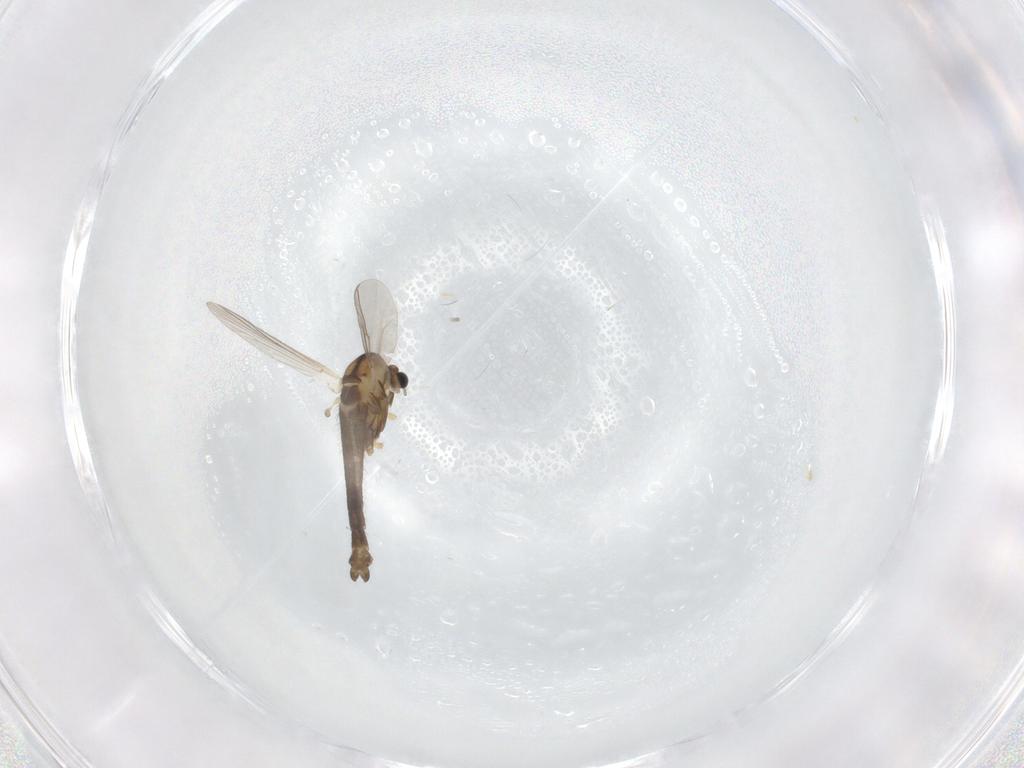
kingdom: Animalia
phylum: Arthropoda
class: Insecta
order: Diptera
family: Chironomidae
